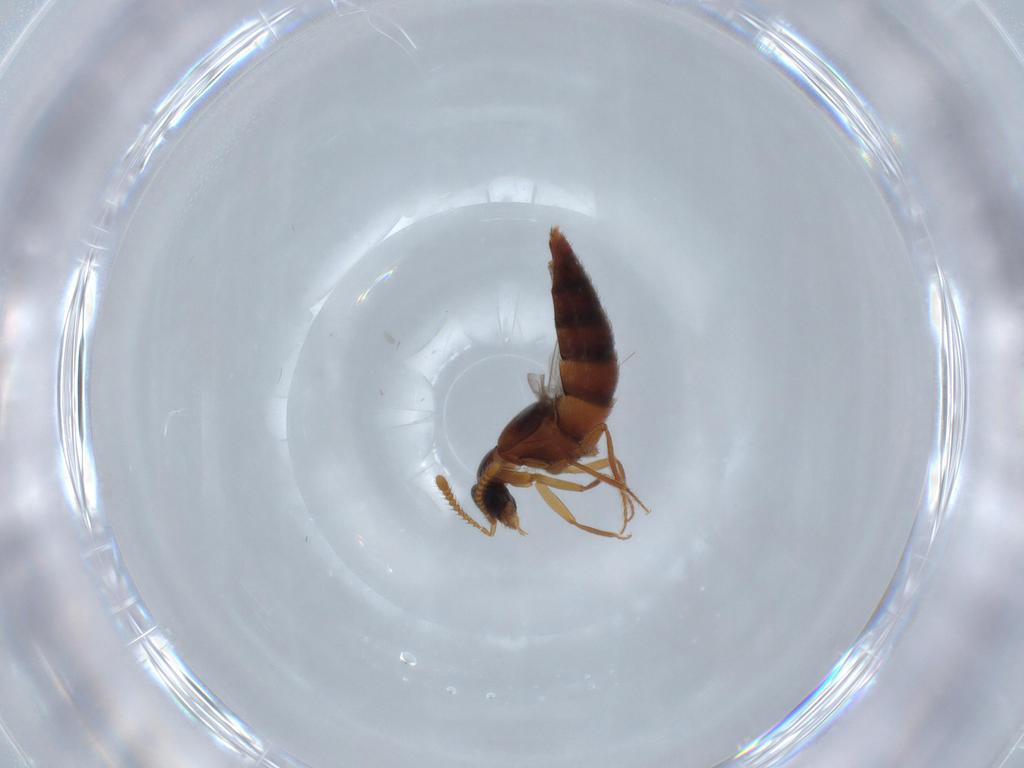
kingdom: Animalia
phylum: Arthropoda
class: Insecta
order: Coleoptera
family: Staphylinidae
